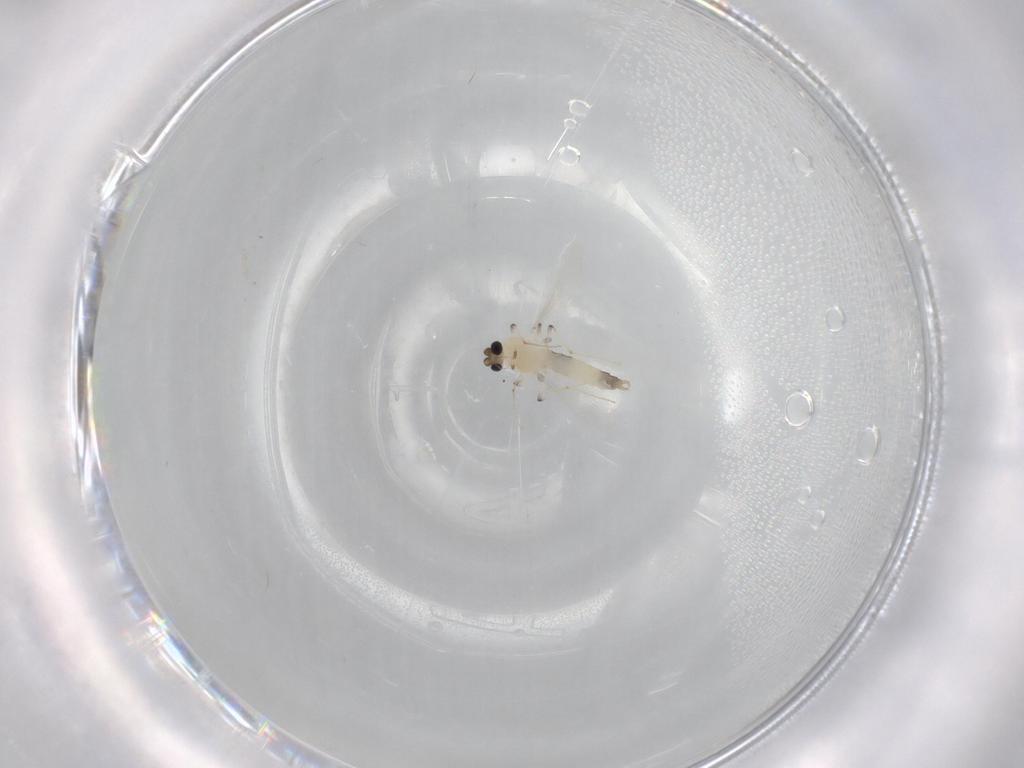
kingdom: Animalia
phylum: Arthropoda
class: Insecta
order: Diptera
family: Chironomidae
